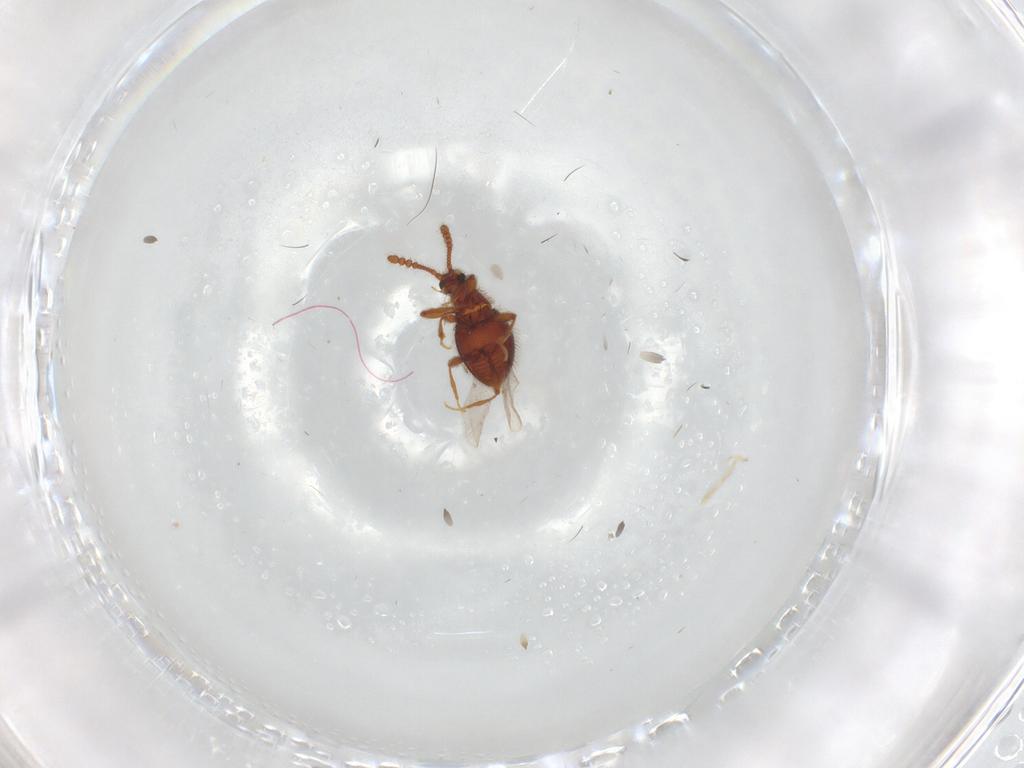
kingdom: Animalia
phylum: Arthropoda
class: Insecta
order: Coleoptera
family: Staphylinidae
